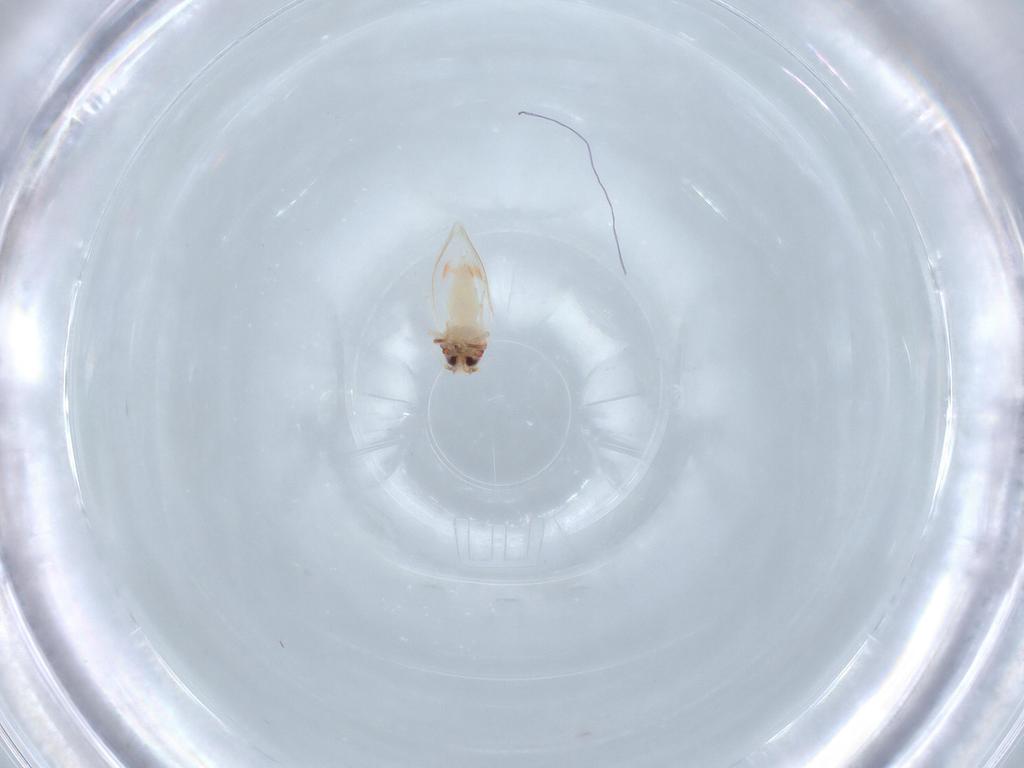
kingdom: Animalia
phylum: Arthropoda
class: Insecta
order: Hemiptera
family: Aleyrodidae
